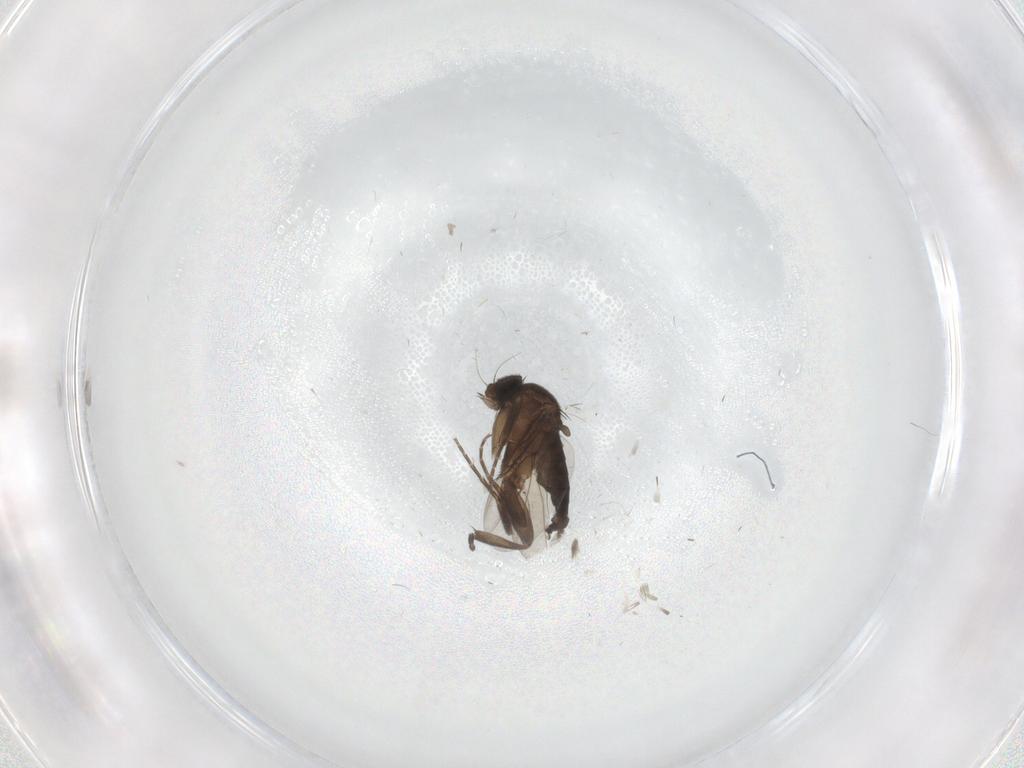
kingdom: Animalia
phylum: Arthropoda
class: Insecta
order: Diptera
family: Phoridae
